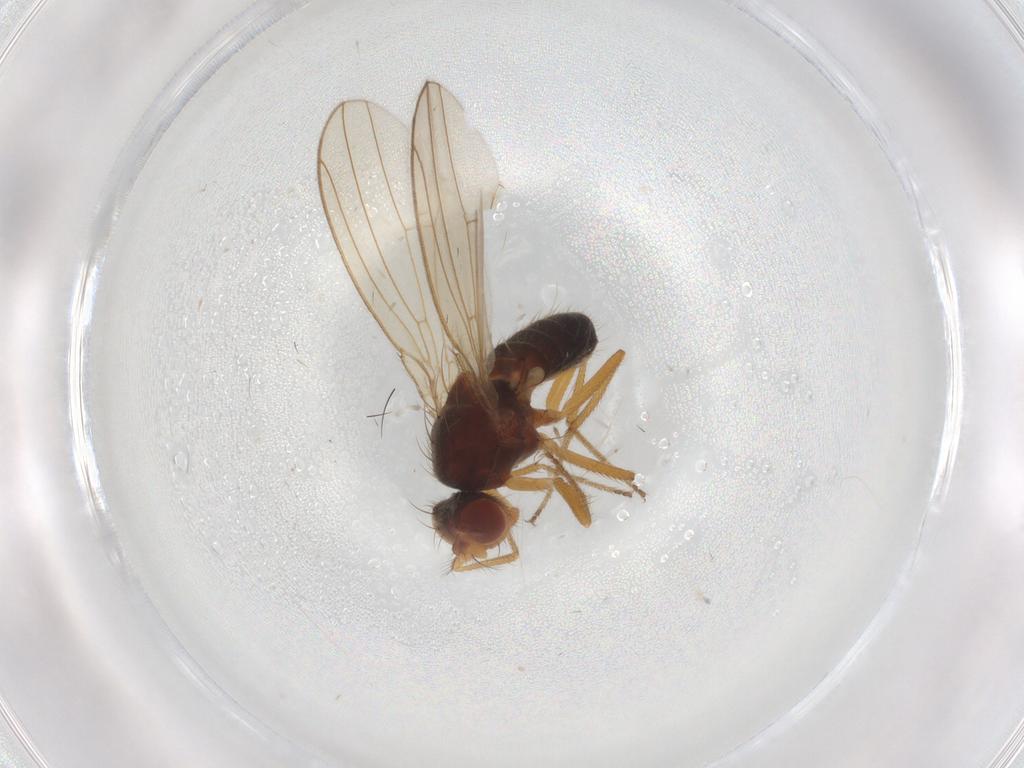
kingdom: Animalia
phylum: Arthropoda
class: Insecta
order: Diptera
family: Drosophilidae
